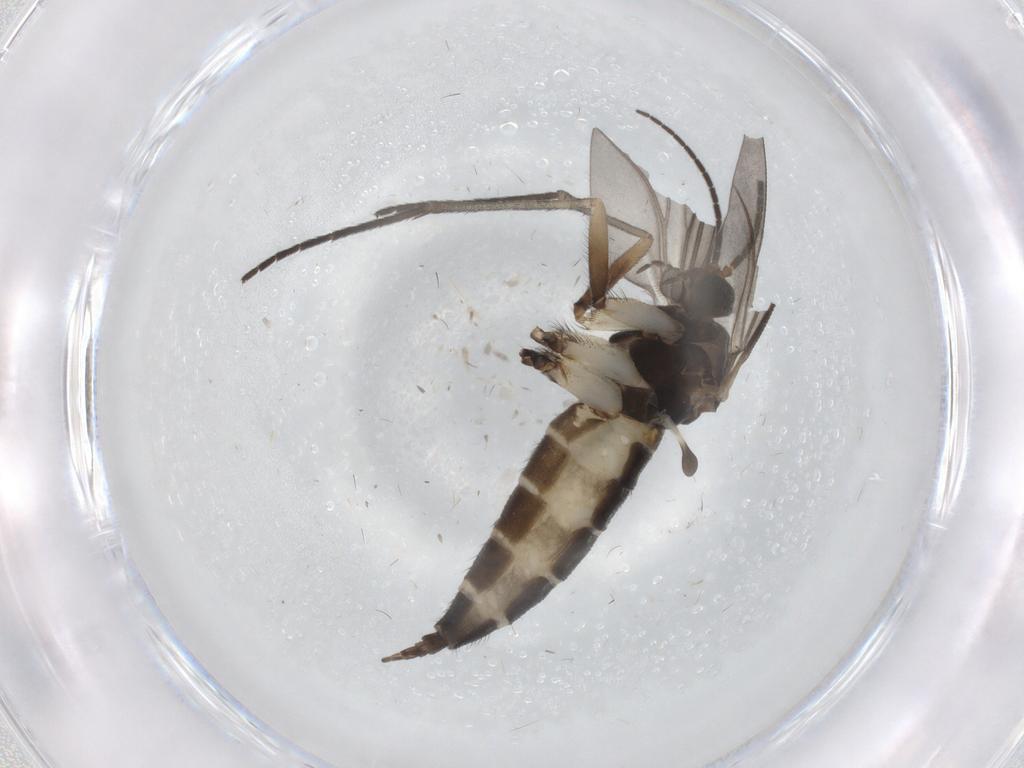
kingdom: Animalia
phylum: Arthropoda
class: Insecta
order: Diptera
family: Sciaridae
